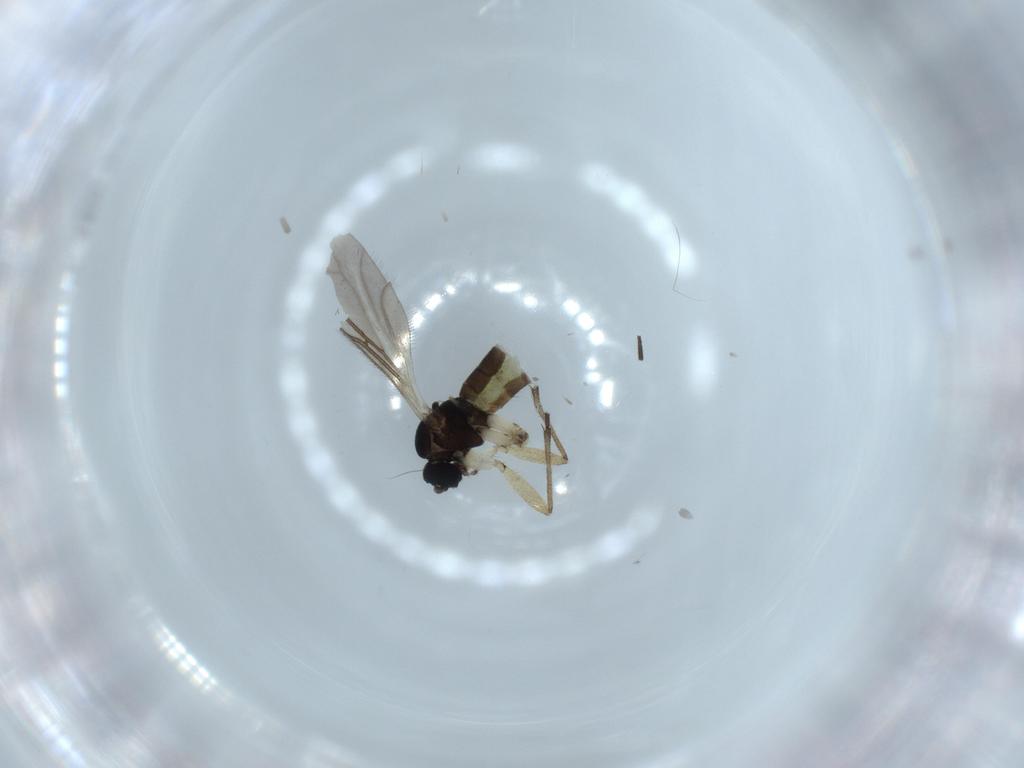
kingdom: Animalia
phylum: Arthropoda
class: Insecta
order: Diptera
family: Sciaridae
